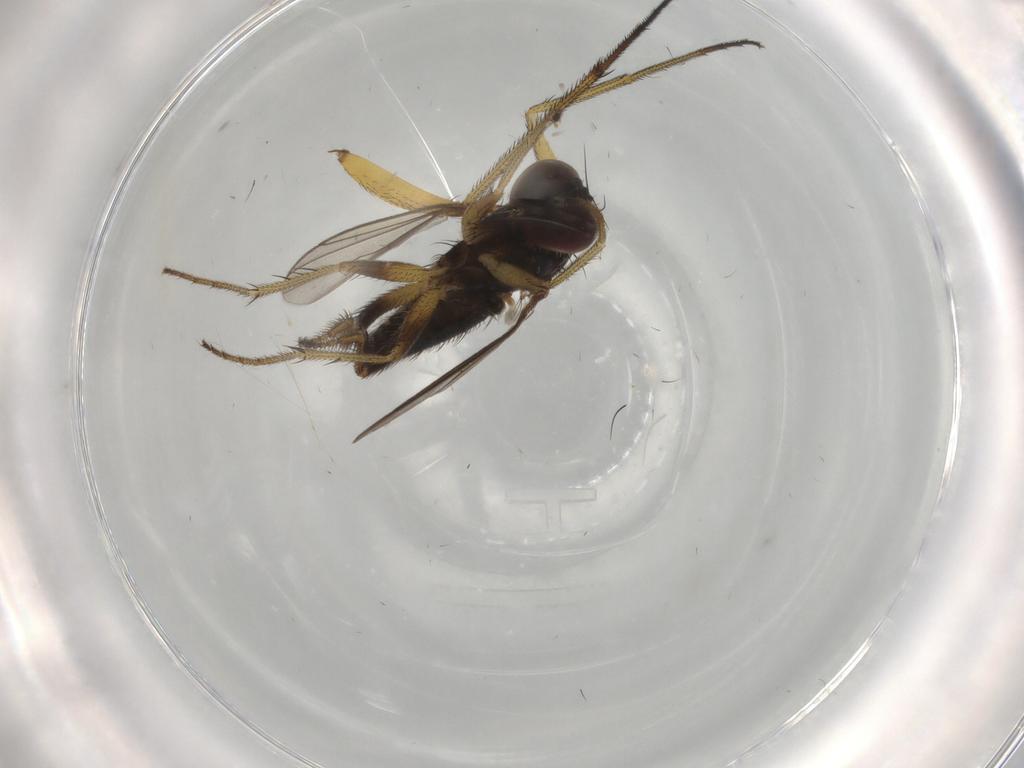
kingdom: Animalia
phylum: Arthropoda
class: Insecta
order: Diptera
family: Dolichopodidae
